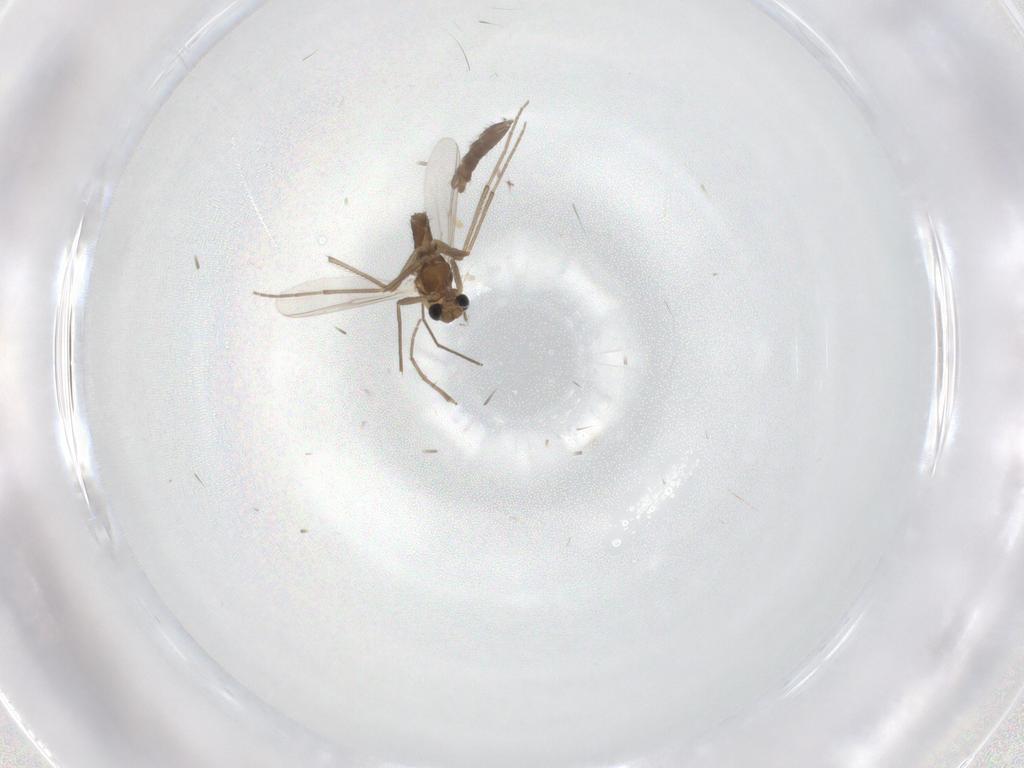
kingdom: Animalia
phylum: Arthropoda
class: Insecta
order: Diptera
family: Chironomidae
